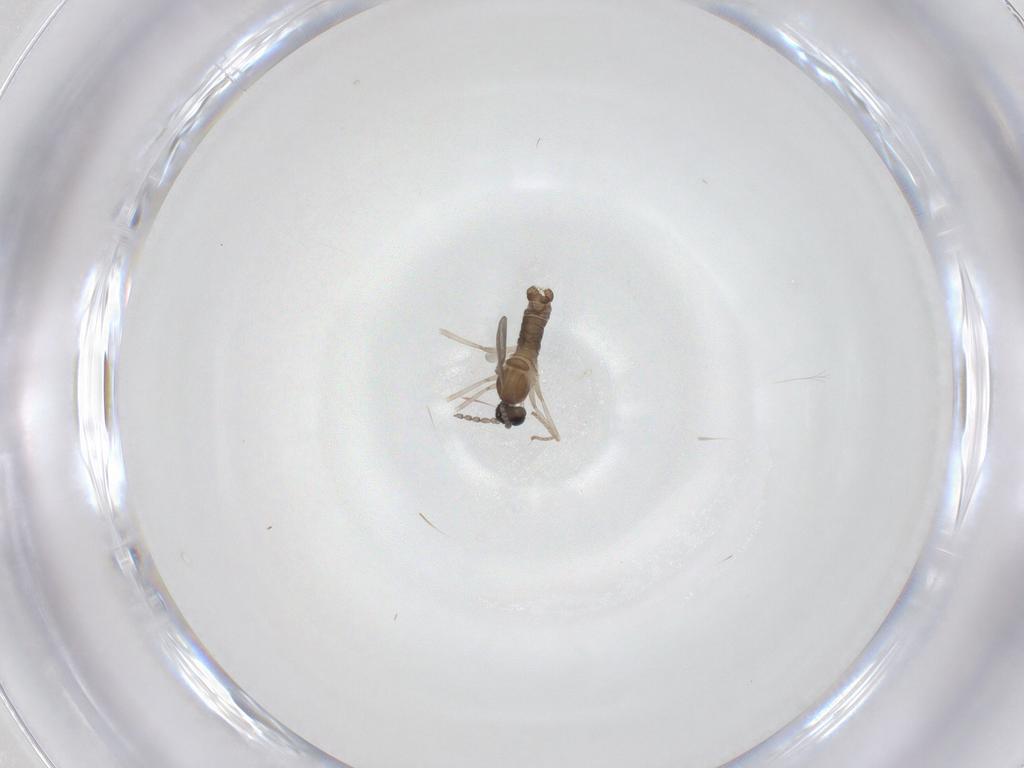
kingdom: Animalia
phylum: Arthropoda
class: Insecta
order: Diptera
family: Cecidomyiidae
